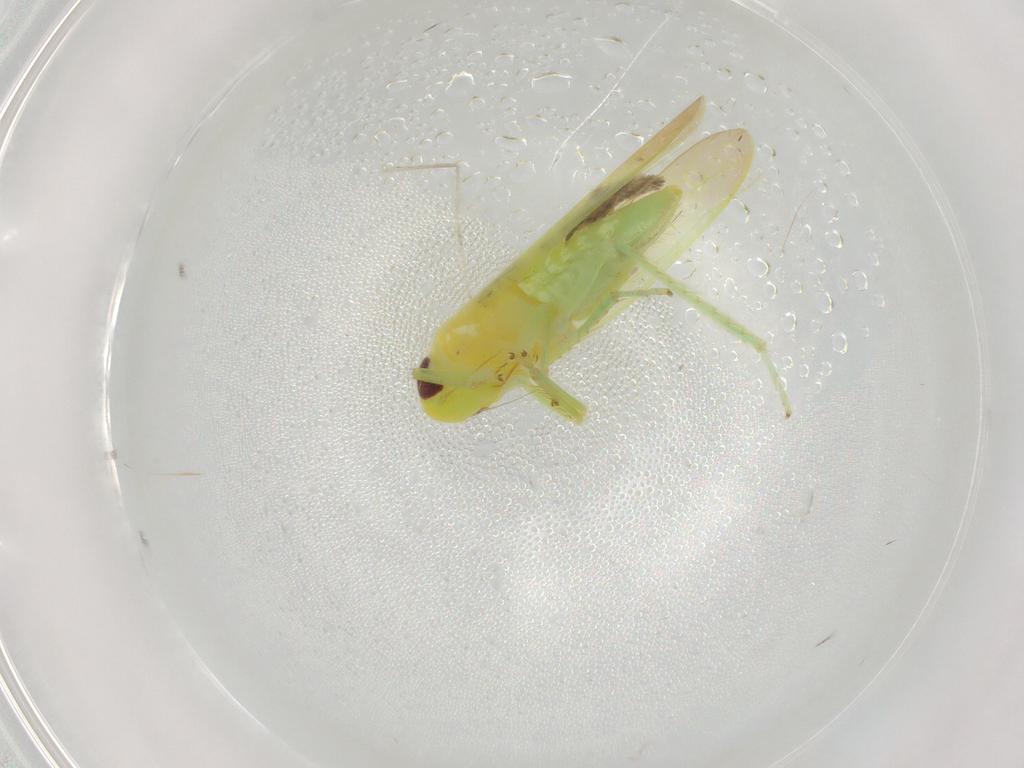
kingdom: Animalia
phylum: Arthropoda
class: Insecta
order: Hemiptera
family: Cicadellidae
